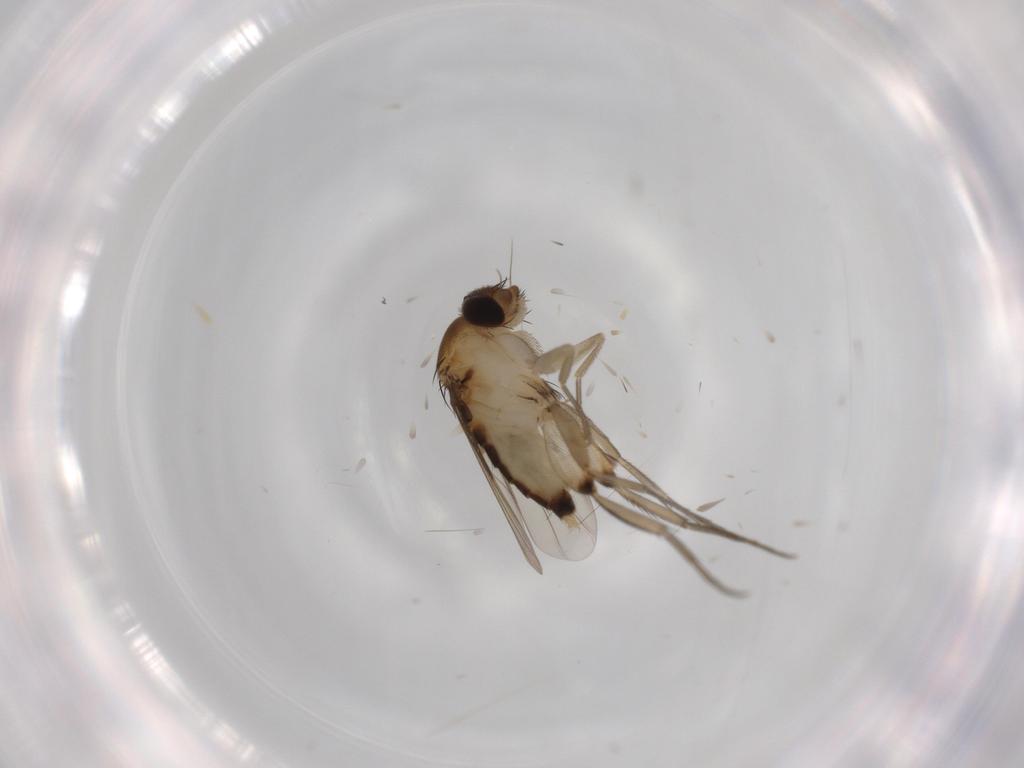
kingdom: Animalia
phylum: Arthropoda
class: Insecta
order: Diptera
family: Phoridae
